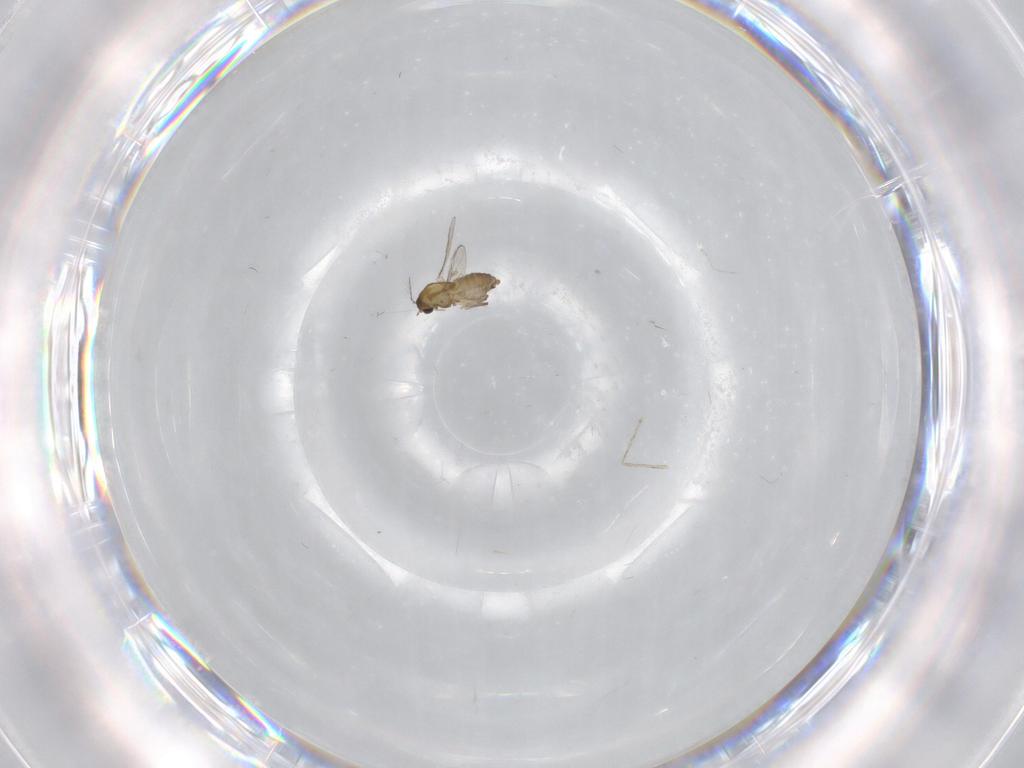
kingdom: Animalia
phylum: Arthropoda
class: Insecta
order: Diptera
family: Chironomidae
